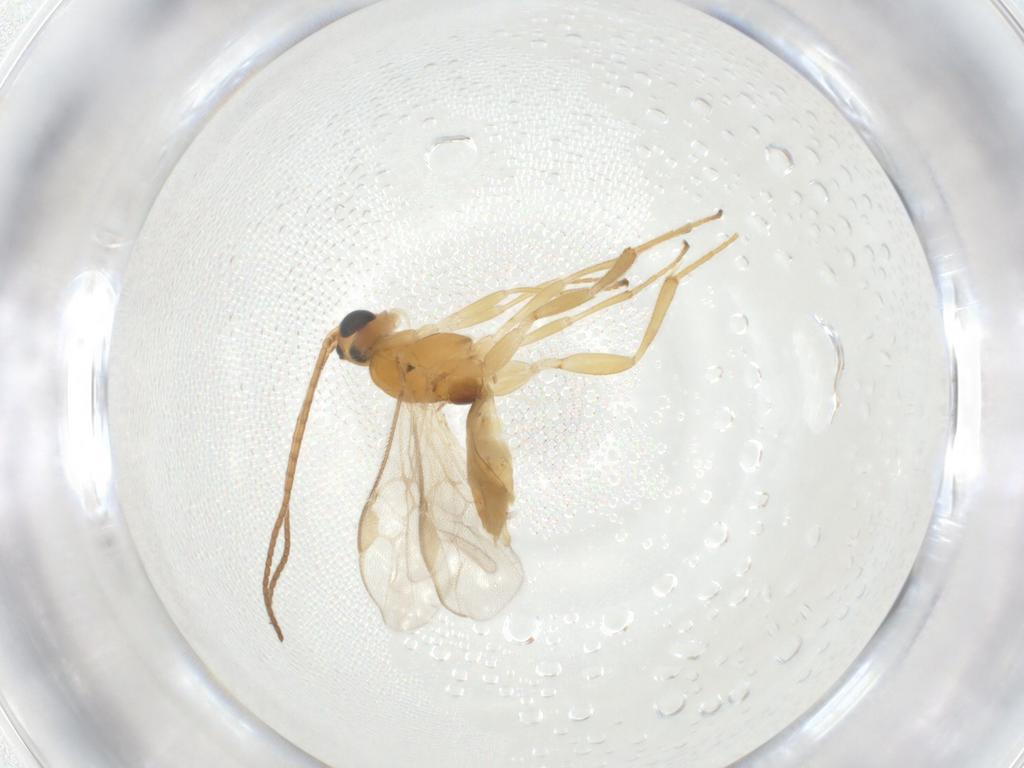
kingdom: Animalia
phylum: Arthropoda
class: Insecta
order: Hymenoptera
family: Braconidae
